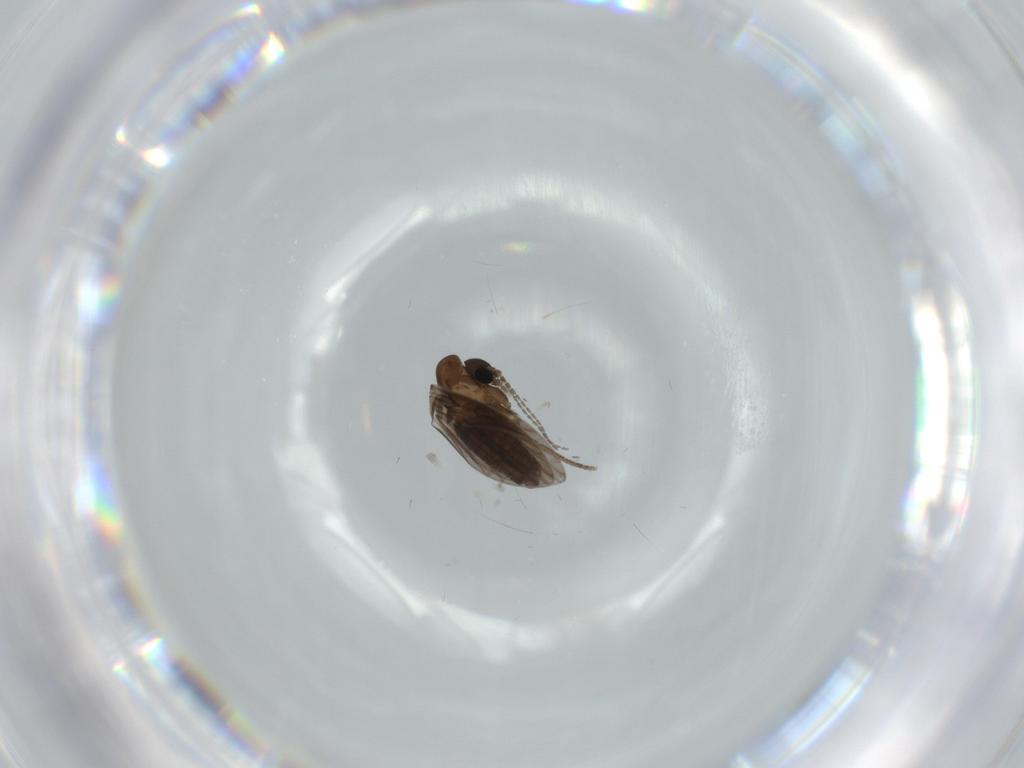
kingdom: Animalia
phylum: Arthropoda
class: Insecta
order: Diptera
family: Psychodidae
